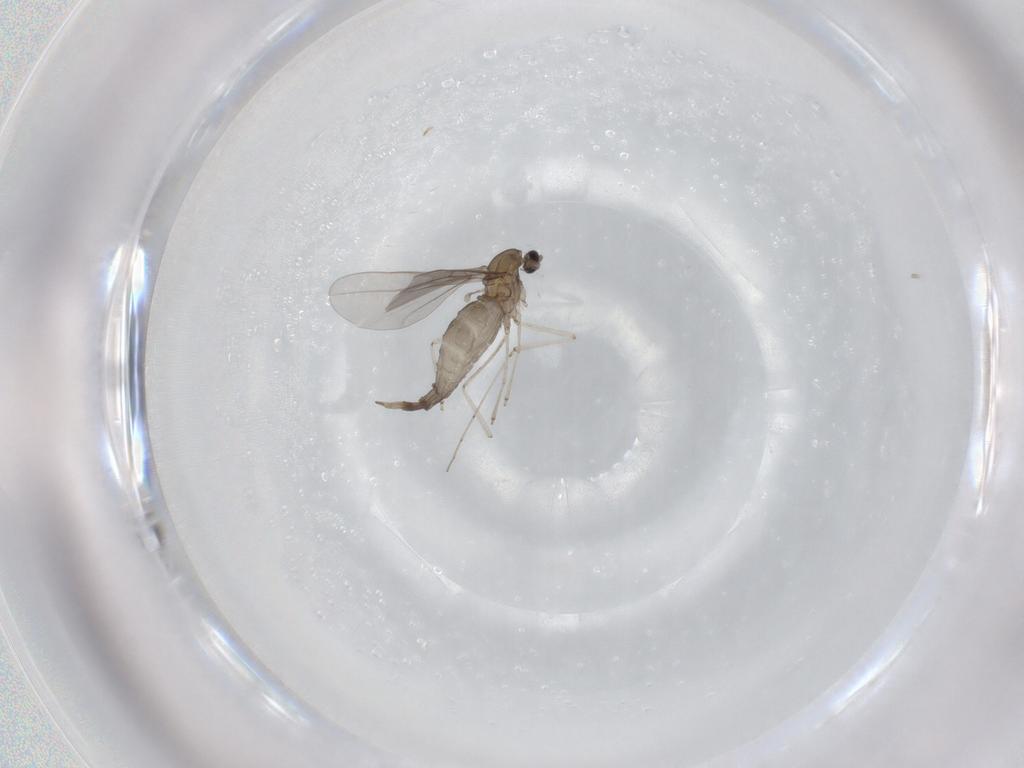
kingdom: Animalia
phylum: Arthropoda
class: Insecta
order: Diptera
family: Cecidomyiidae
